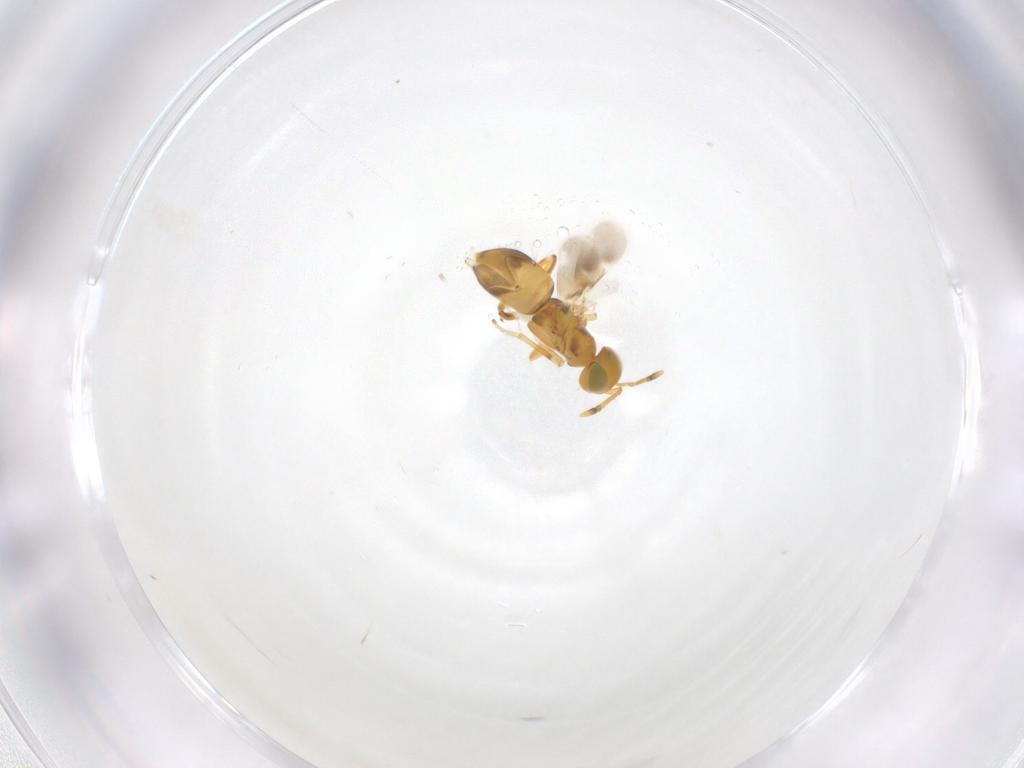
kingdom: Animalia
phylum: Arthropoda
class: Insecta
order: Hymenoptera
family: Encyrtidae
